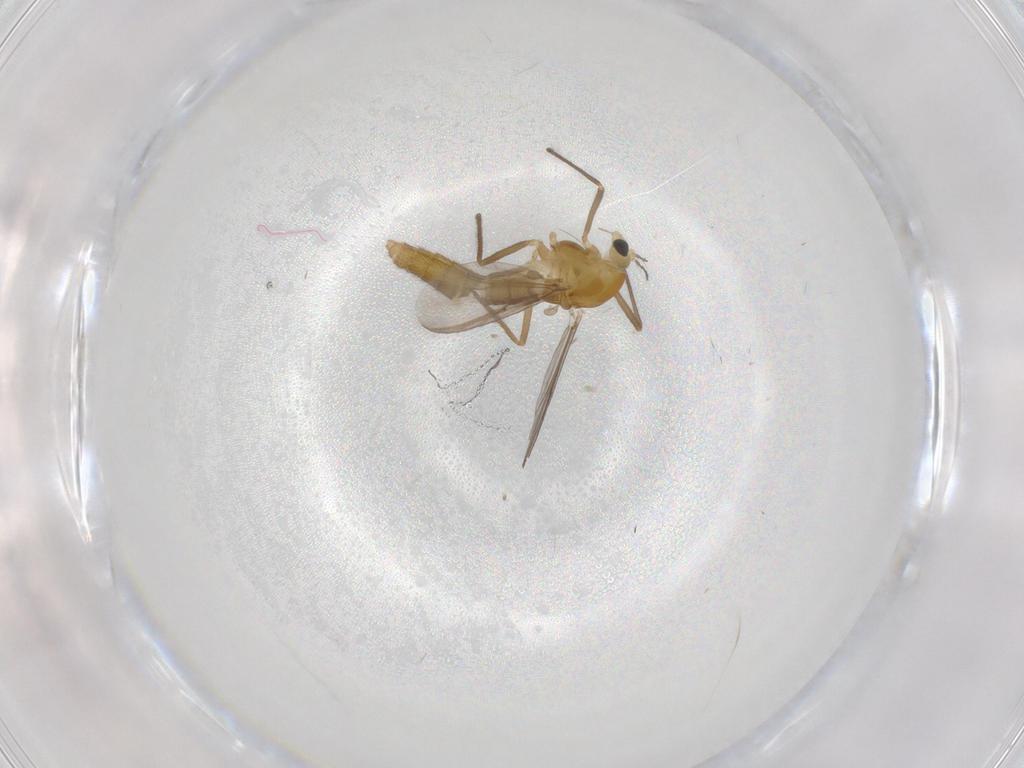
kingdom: Animalia
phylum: Arthropoda
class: Insecta
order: Diptera
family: Chironomidae
